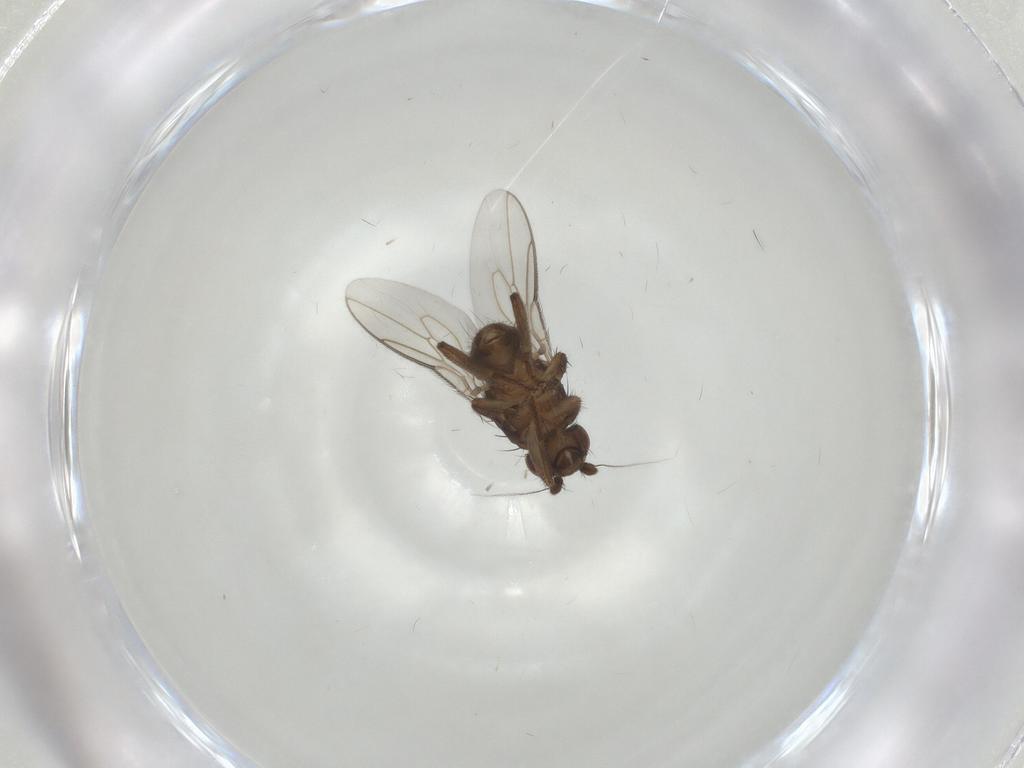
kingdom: Animalia
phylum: Arthropoda
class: Insecta
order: Diptera
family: Sphaeroceridae
